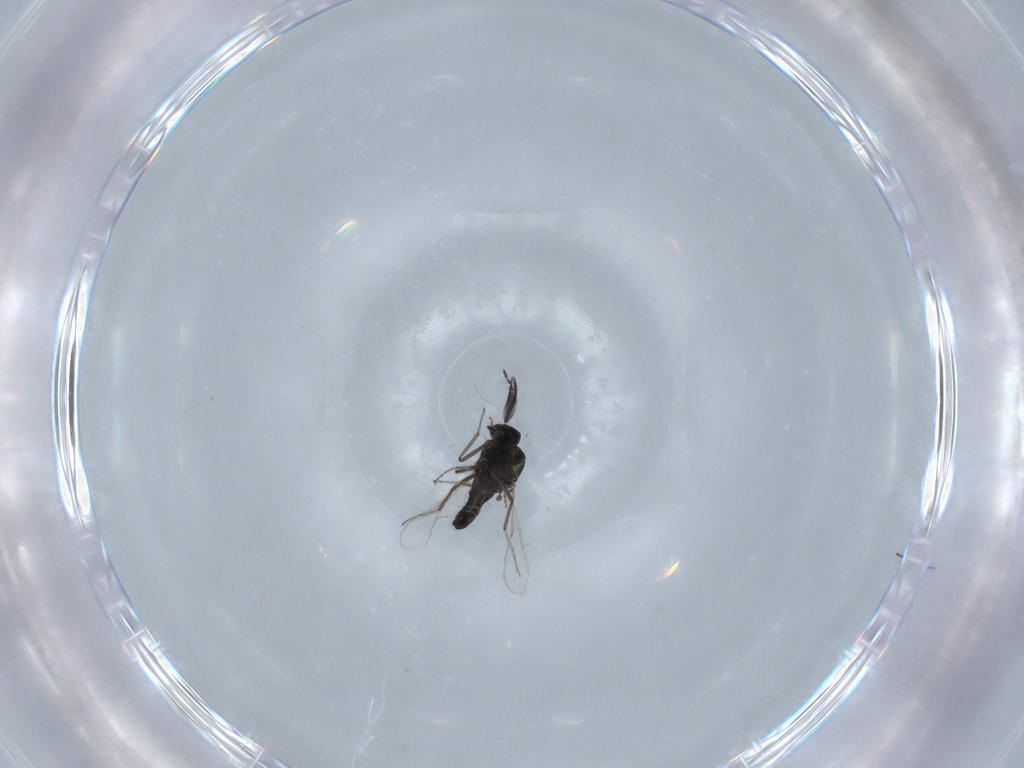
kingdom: Animalia
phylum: Arthropoda
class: Insecta
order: Diptera
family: Ceratopogonidae
